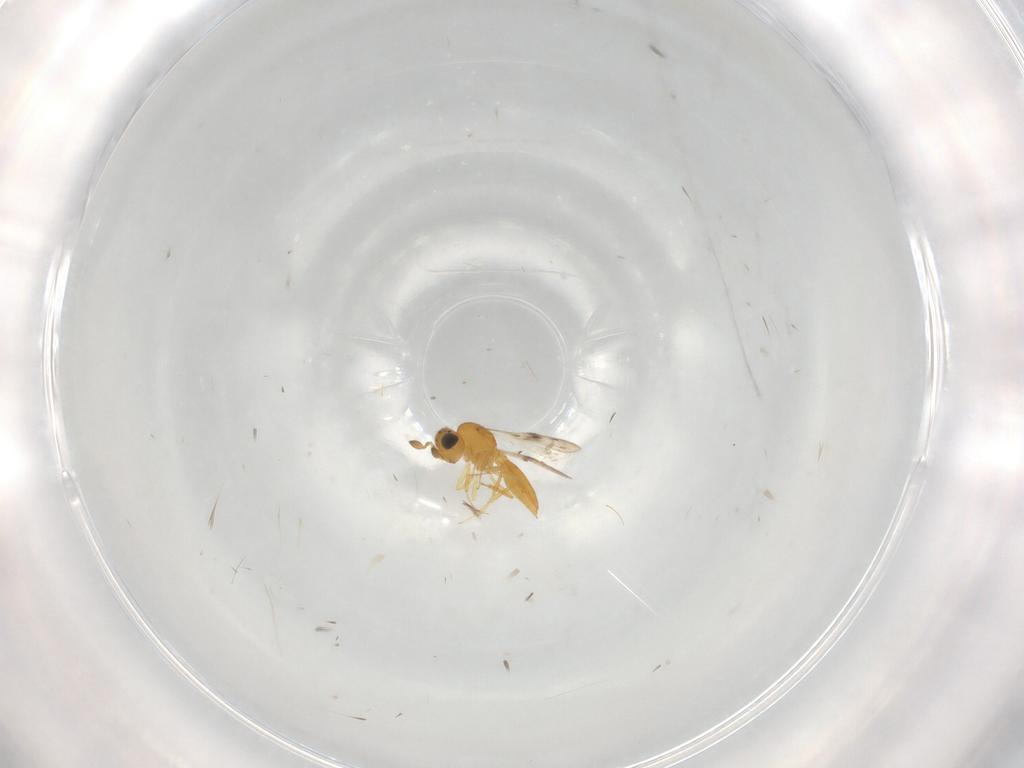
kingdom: Animalia
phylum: Arthropoda
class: Insecta
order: Hymenoptera
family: Scelionidae
